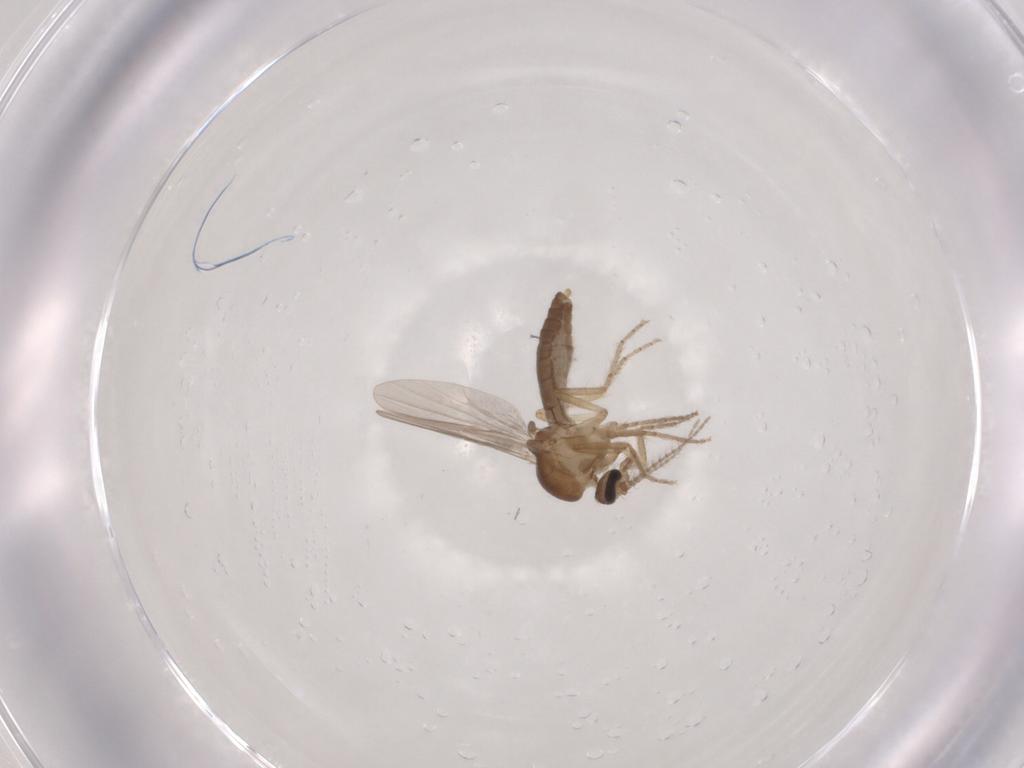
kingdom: Animalia
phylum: Arthropoda
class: Insecta
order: Diptera
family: Ceratopogonidae
